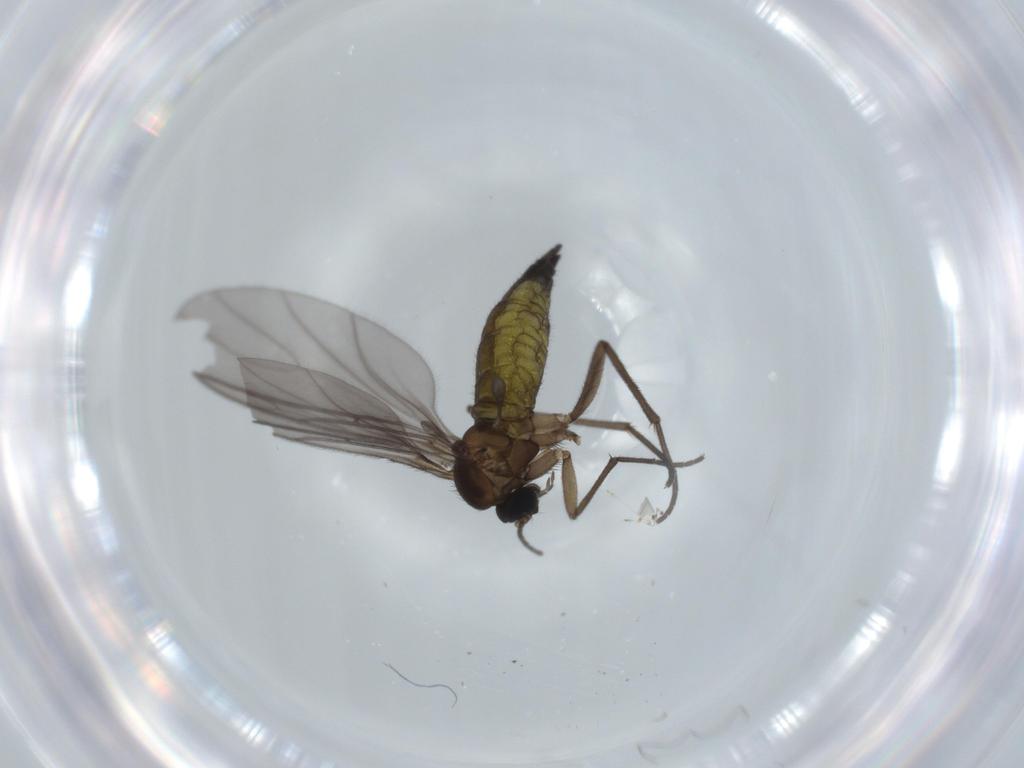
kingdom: Animalia
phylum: Arthropoda
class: Insecta
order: Diptera
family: Sciaridae
